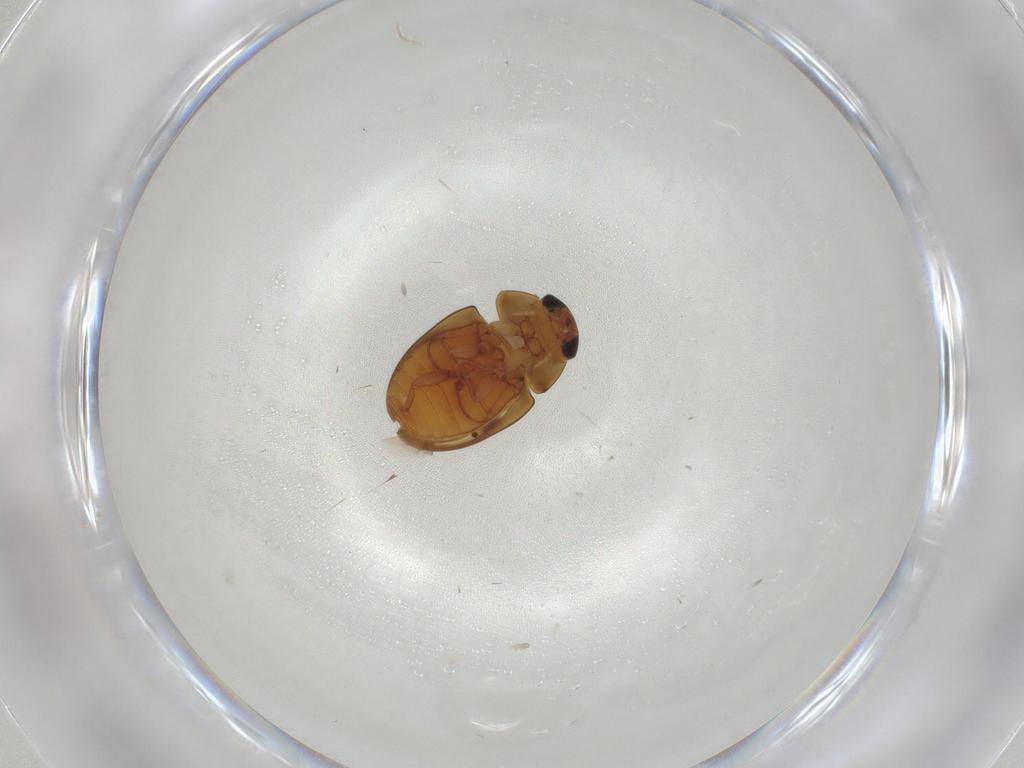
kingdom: Animalia
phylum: Arthropoda
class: Insecta
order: Coleoptera
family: Phalacridae
